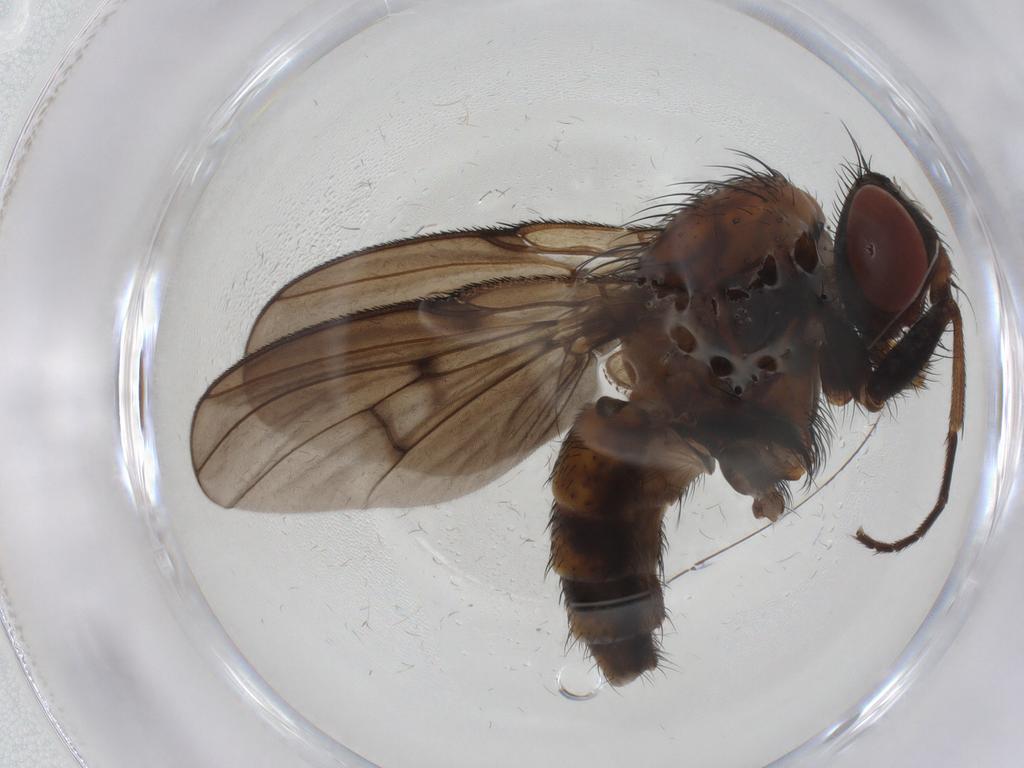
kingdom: Animalia
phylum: Arthropoda
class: Insecta
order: Diptera
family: Muscidae
